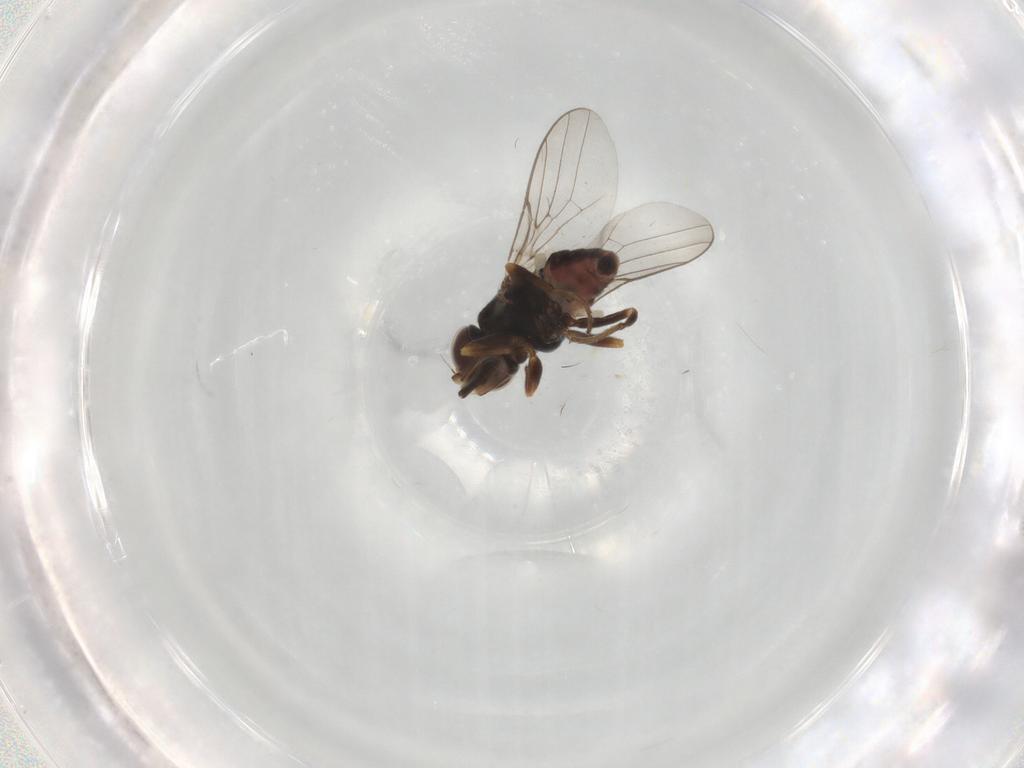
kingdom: Animalia
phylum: Arthropoda
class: Insecta
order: Diptera
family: Chloropidae
